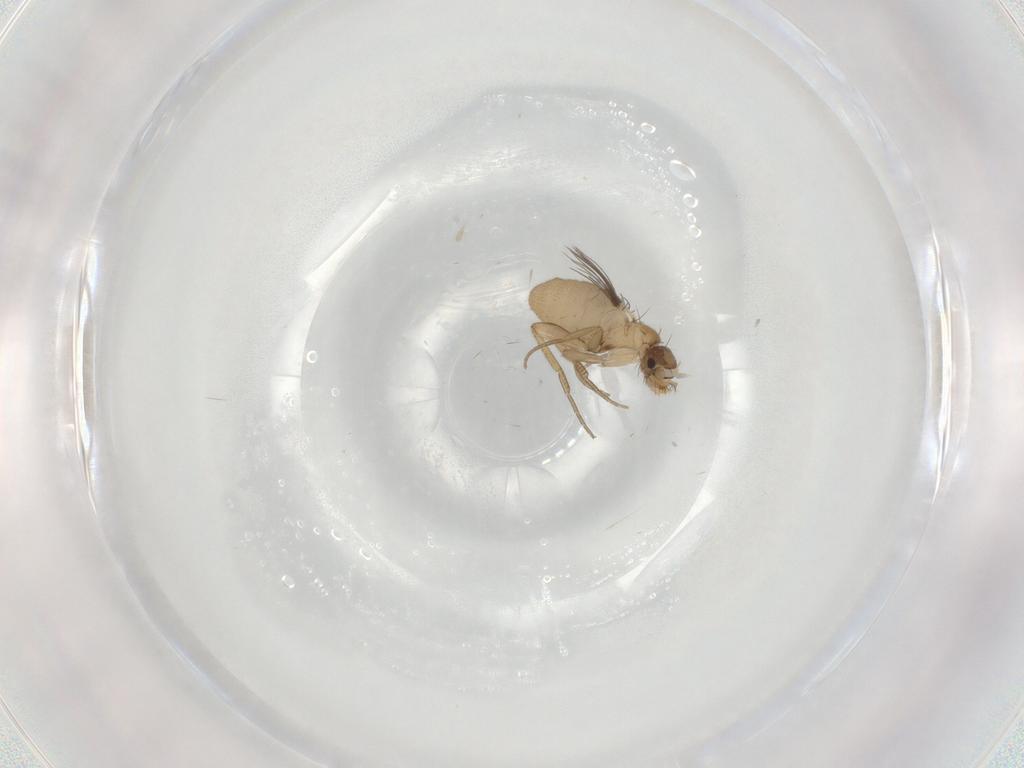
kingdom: Animalia
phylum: Arthropoda
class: Insecta
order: Diptera
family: Phoridae
